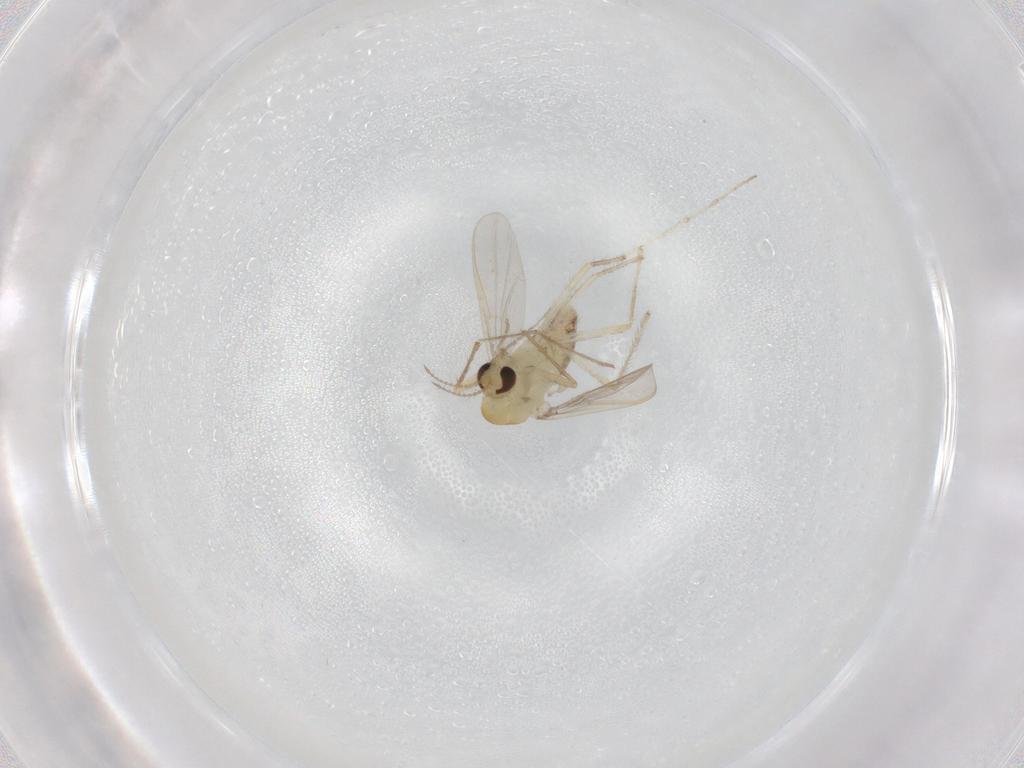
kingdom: Animalia
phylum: Arthropoda
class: Insecta
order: Diptera
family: Chironomidae
